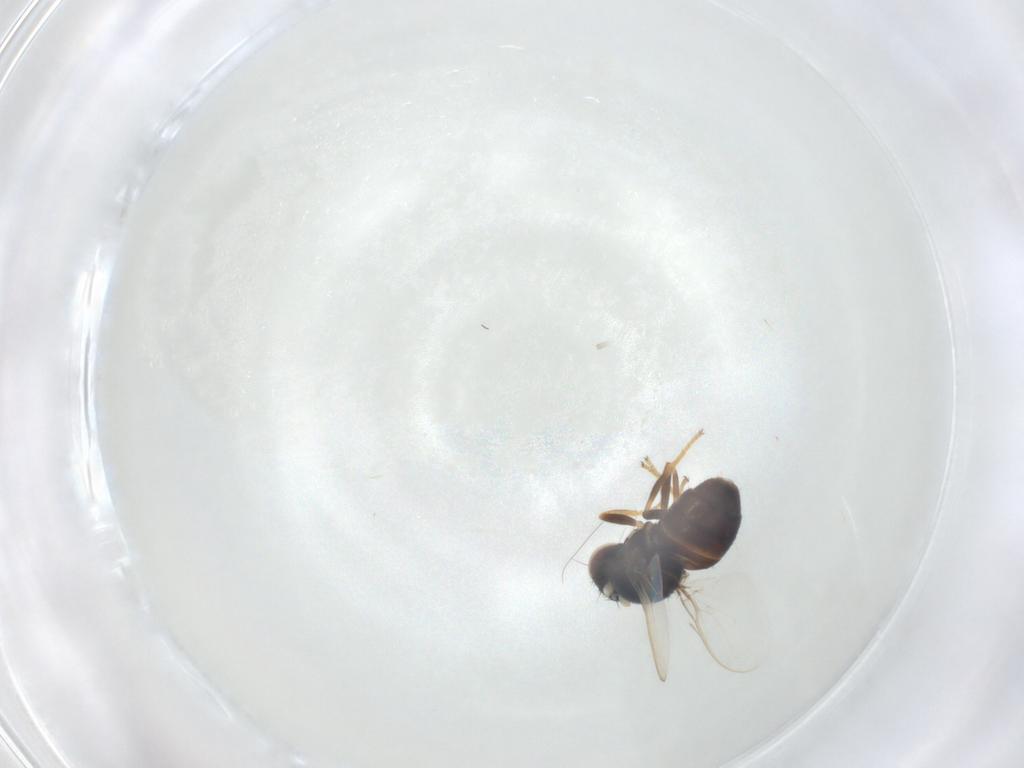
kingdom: Animalia
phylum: Arthropoda
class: Insecta
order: Diptera
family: Chloropidae
